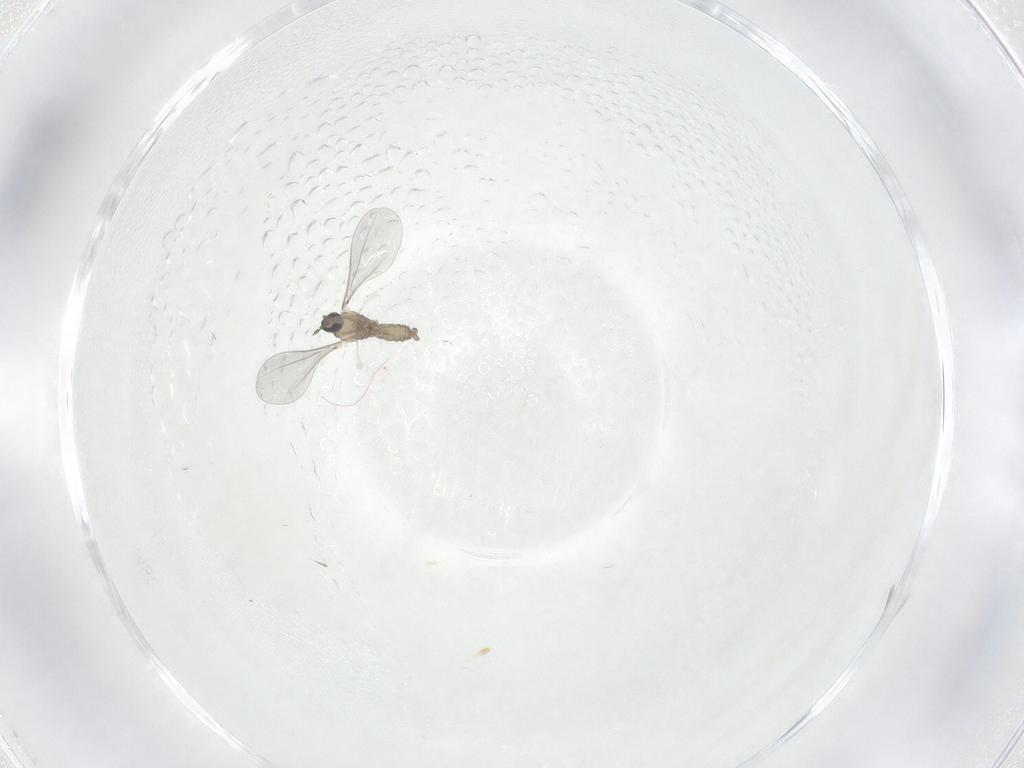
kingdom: Animalia
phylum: Arthropoda
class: Insecta
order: Diptera
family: Cecidomyiidae
